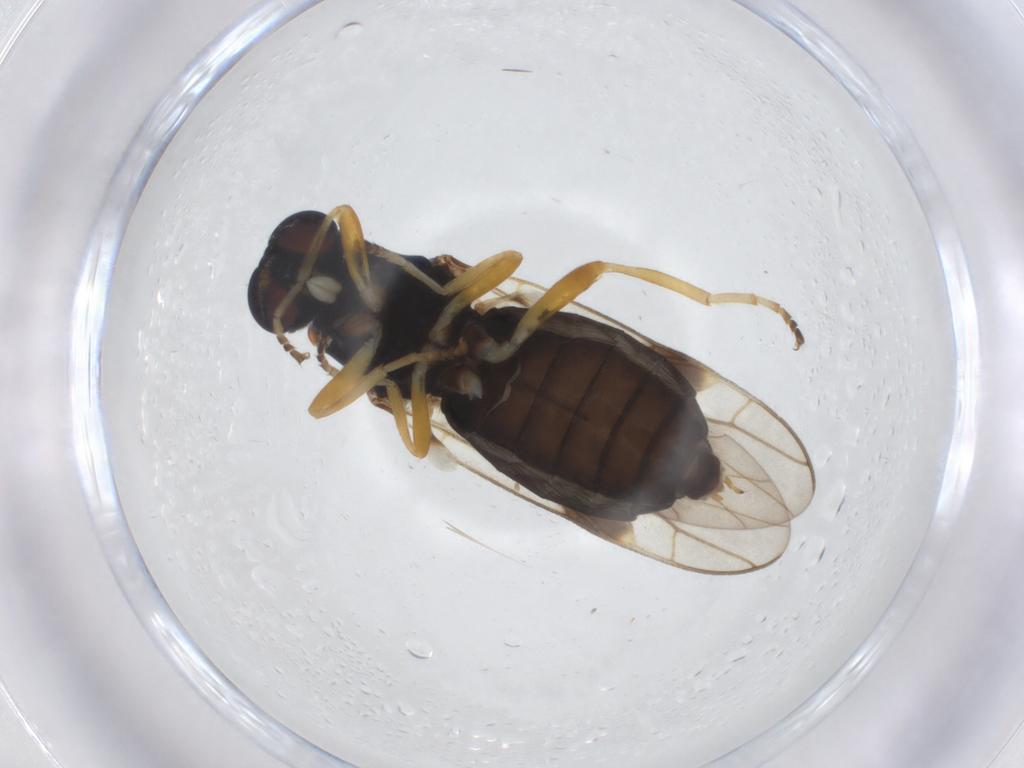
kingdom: Animalia
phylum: Arthropoda
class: Insecta
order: Diptera
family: Stratiomyidae
